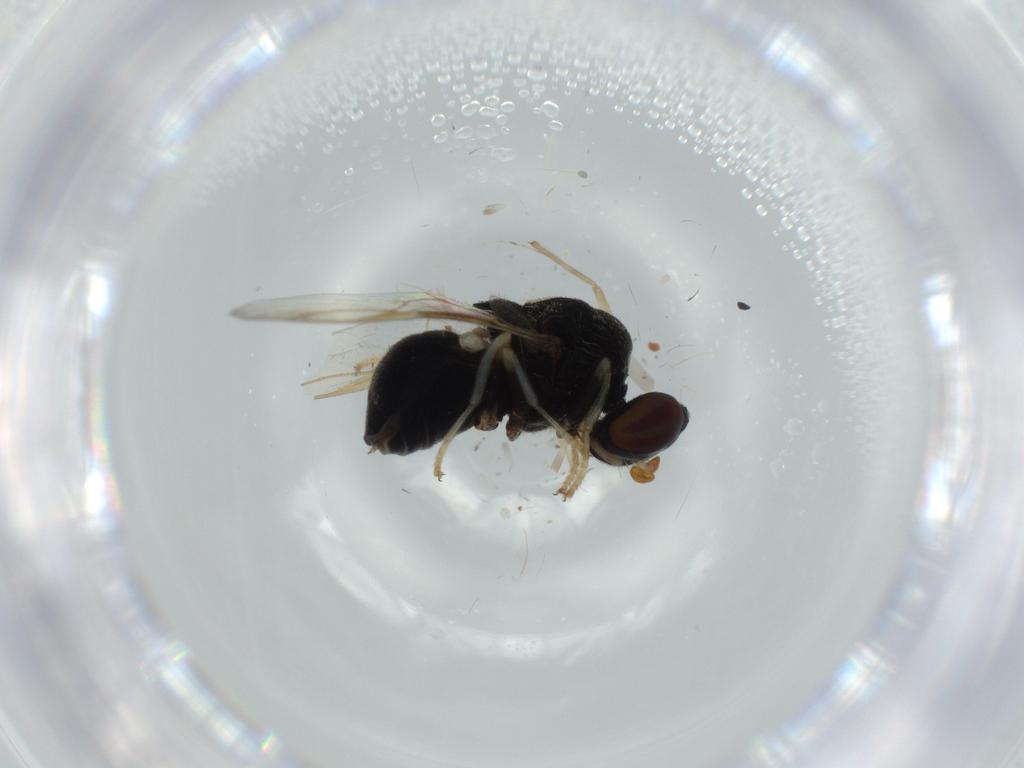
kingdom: Animalia
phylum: Arthropoda
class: Insecta
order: Diptera
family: Stratiomyidae
